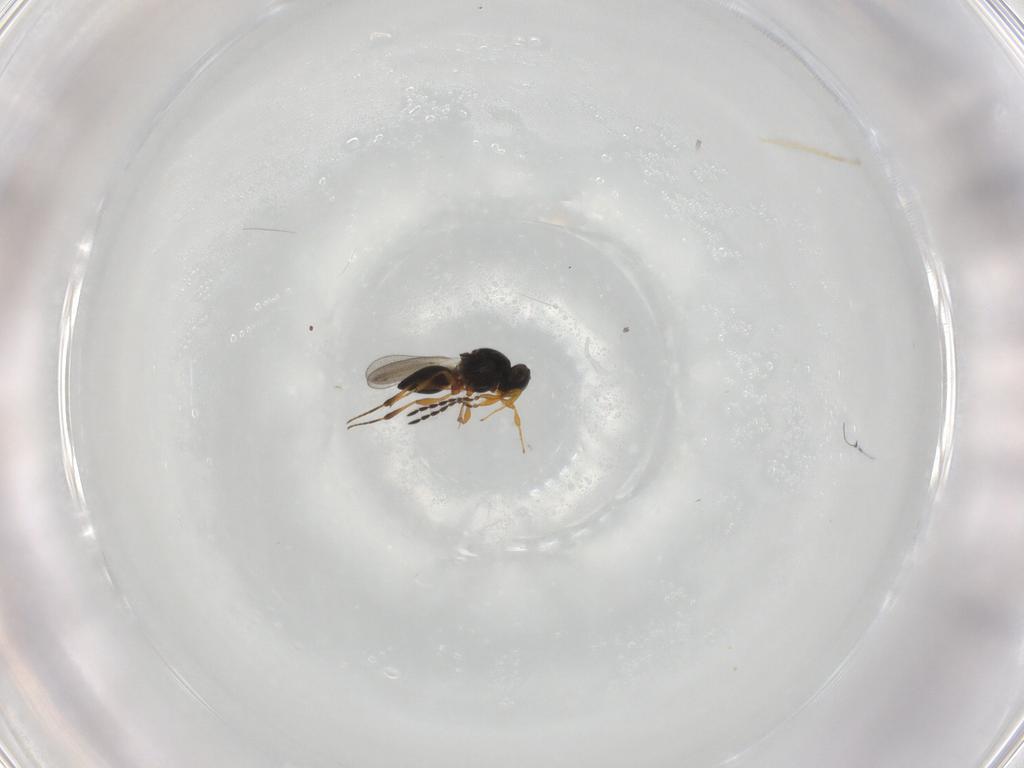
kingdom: Animalia
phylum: Arthropoda
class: Insecta
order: Hymenoptera
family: Platygastridae
